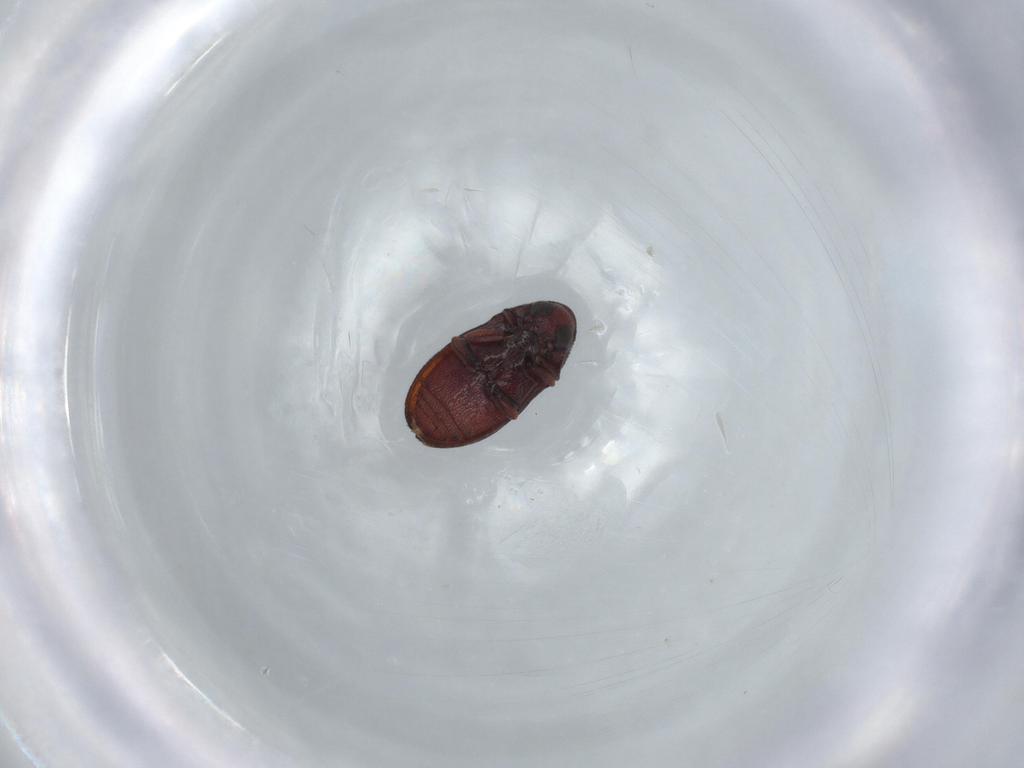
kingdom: Animalia
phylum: Arthropoda
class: Insecta
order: Coleoptera
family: Ptinidae
